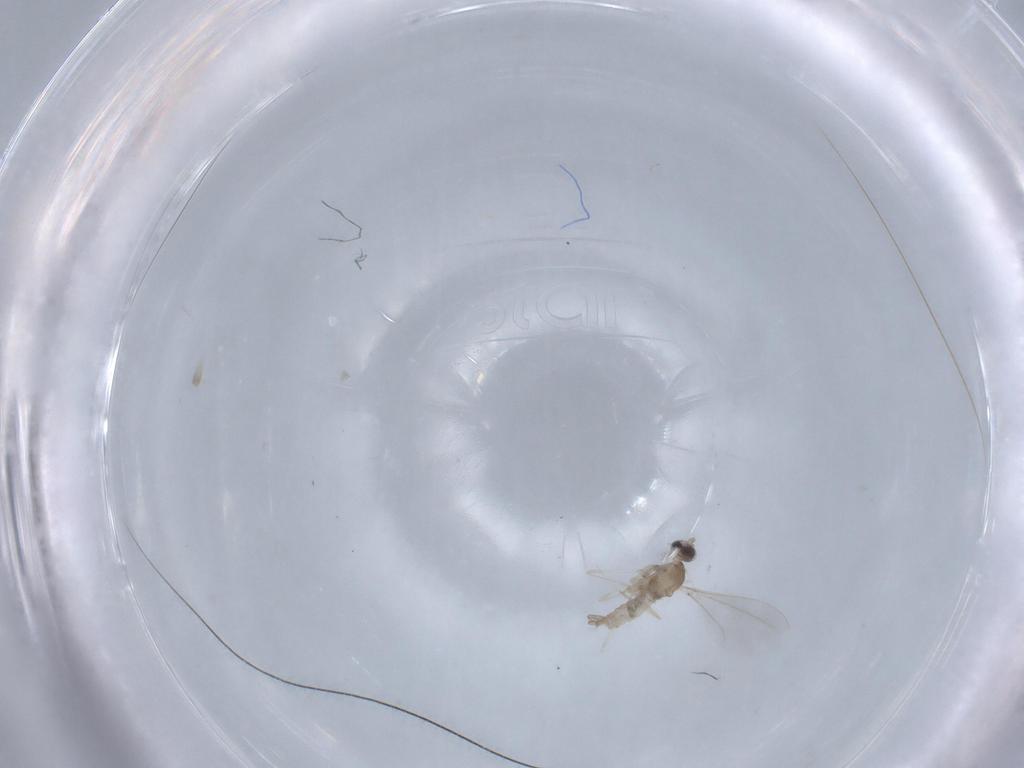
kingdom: Animalia
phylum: Arthropoda
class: Insecta
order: Diptera
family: Cecidomyiidae
